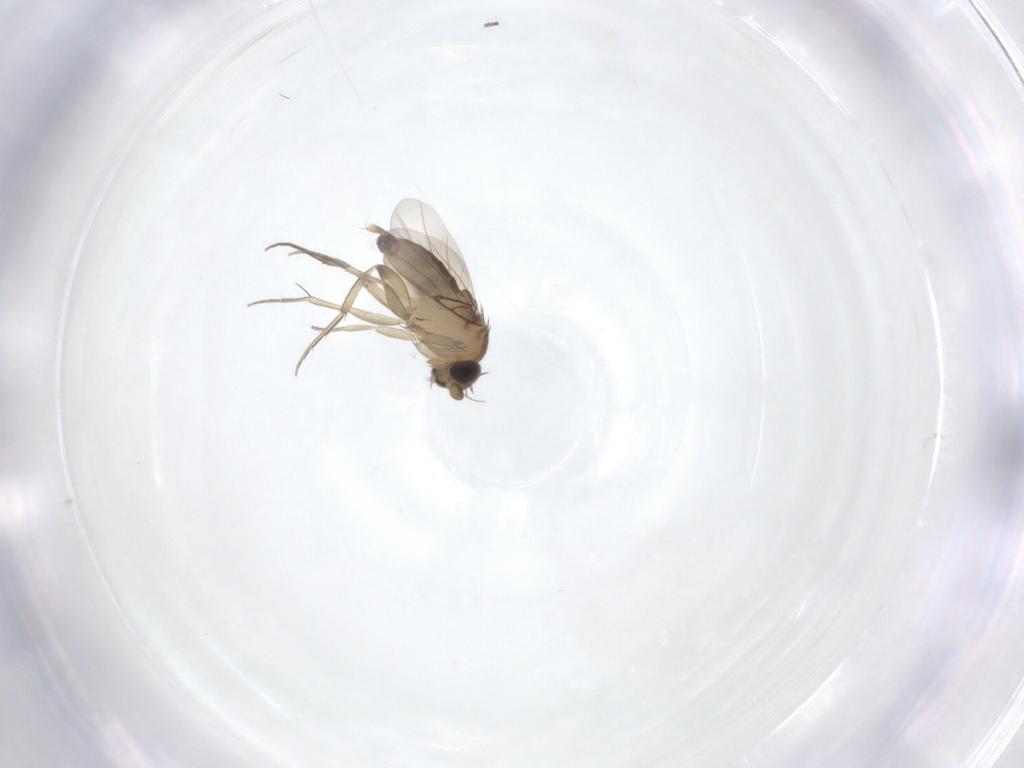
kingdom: Animalia
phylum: Arthropoda
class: Insecta
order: Diptera
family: Phoridae
